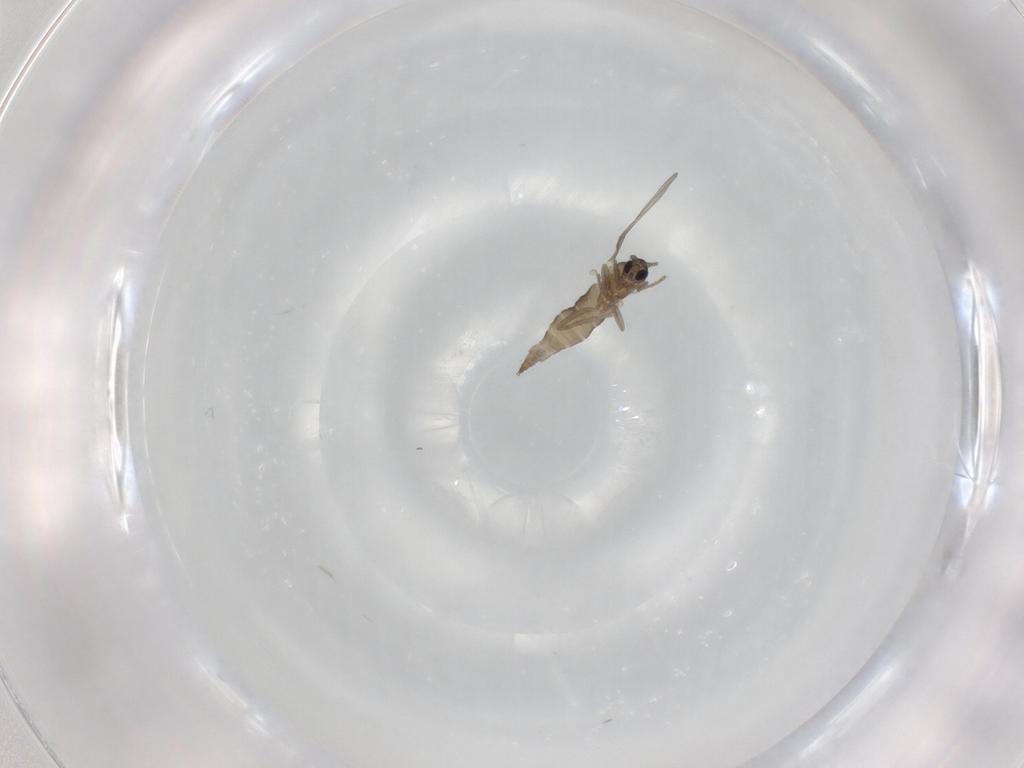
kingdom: Animalia
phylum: Arthropoda
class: Insecta
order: Diptera
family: Cecidomyiidae
